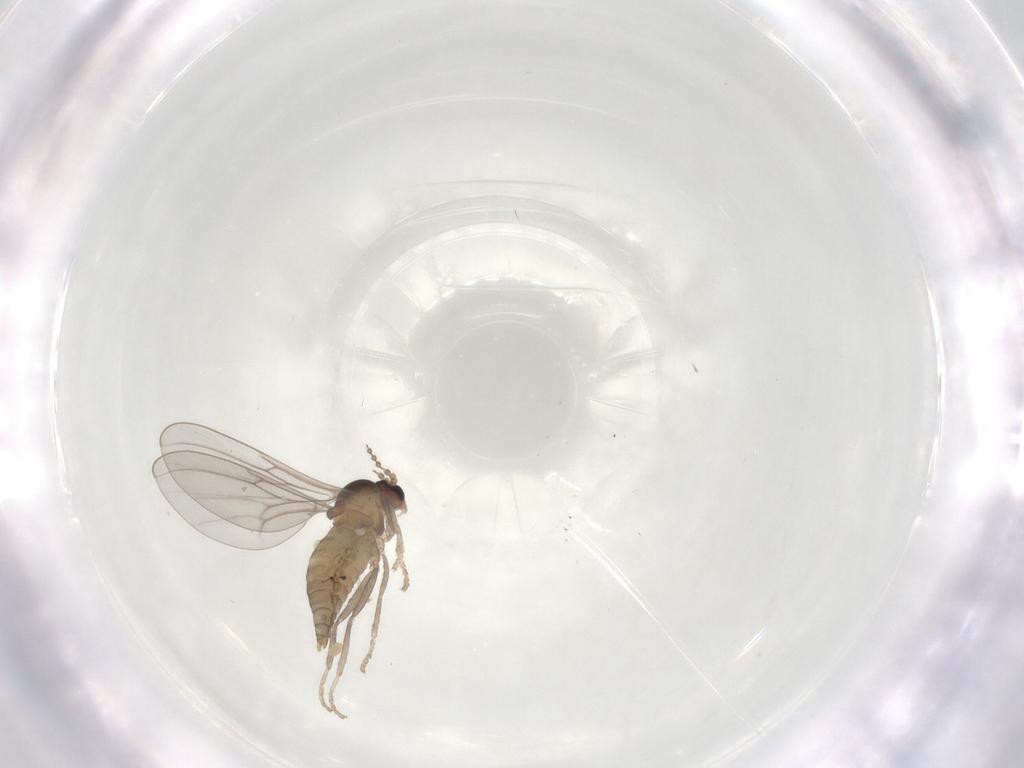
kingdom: Animalia
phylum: Arthropoda
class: Insecta
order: Diptera
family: Cecidomyiidae
